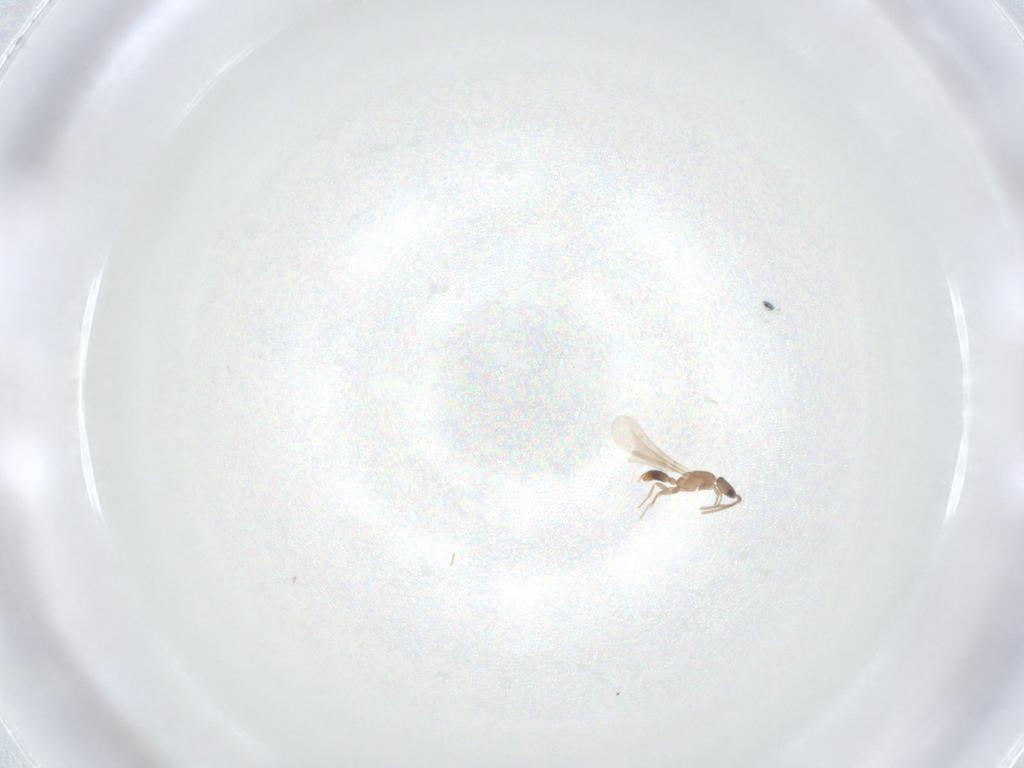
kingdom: Animalia
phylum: Arthropoda
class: Insecta
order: Hymenoptera
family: Formicidae
